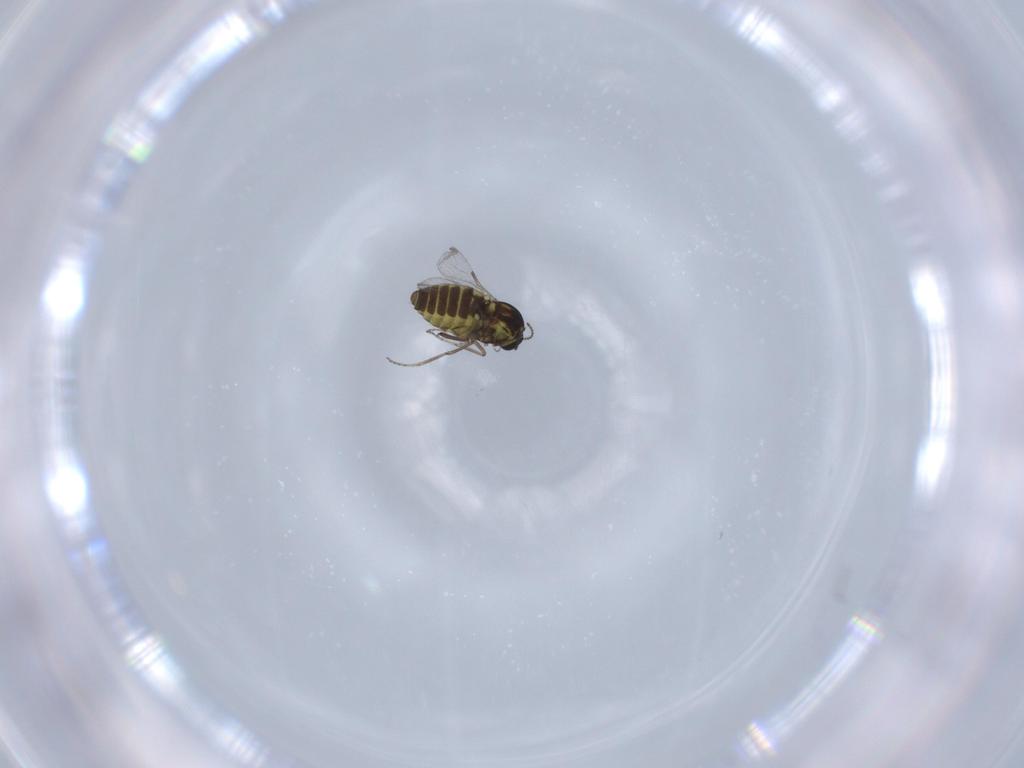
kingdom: Animalia
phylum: Arthropoda
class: Insecta
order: Diptera
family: Ceratopogonidae
